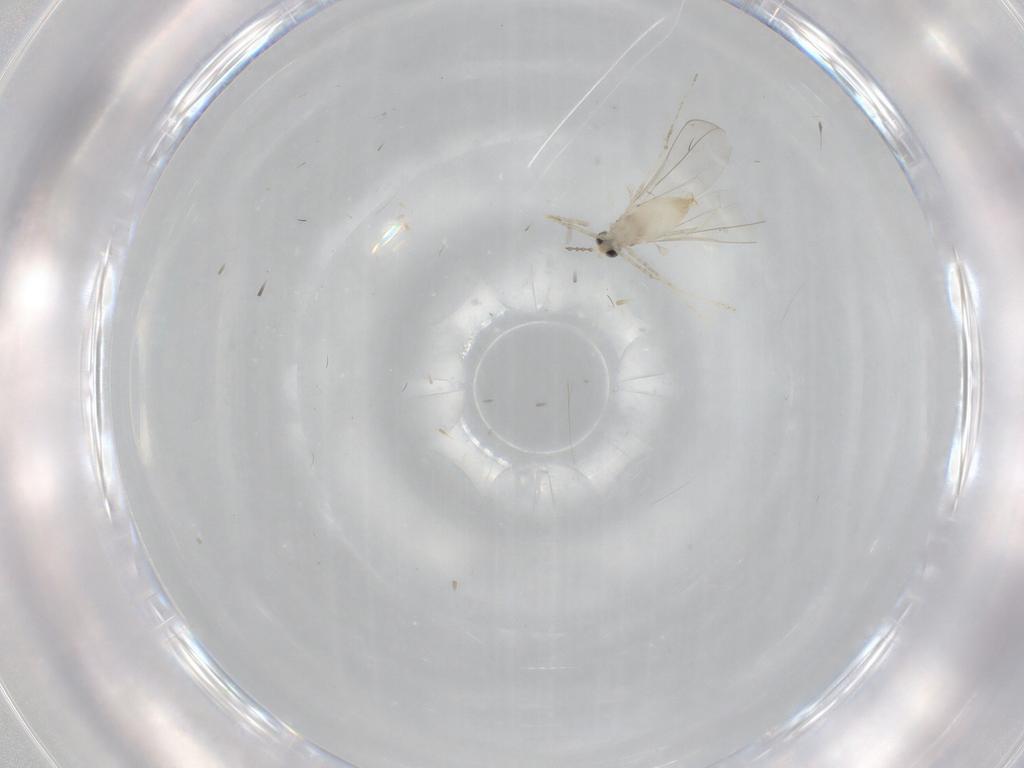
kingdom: Animalia
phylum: Arthropoda
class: Insecta
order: Diptera
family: Cecidomyiidae
